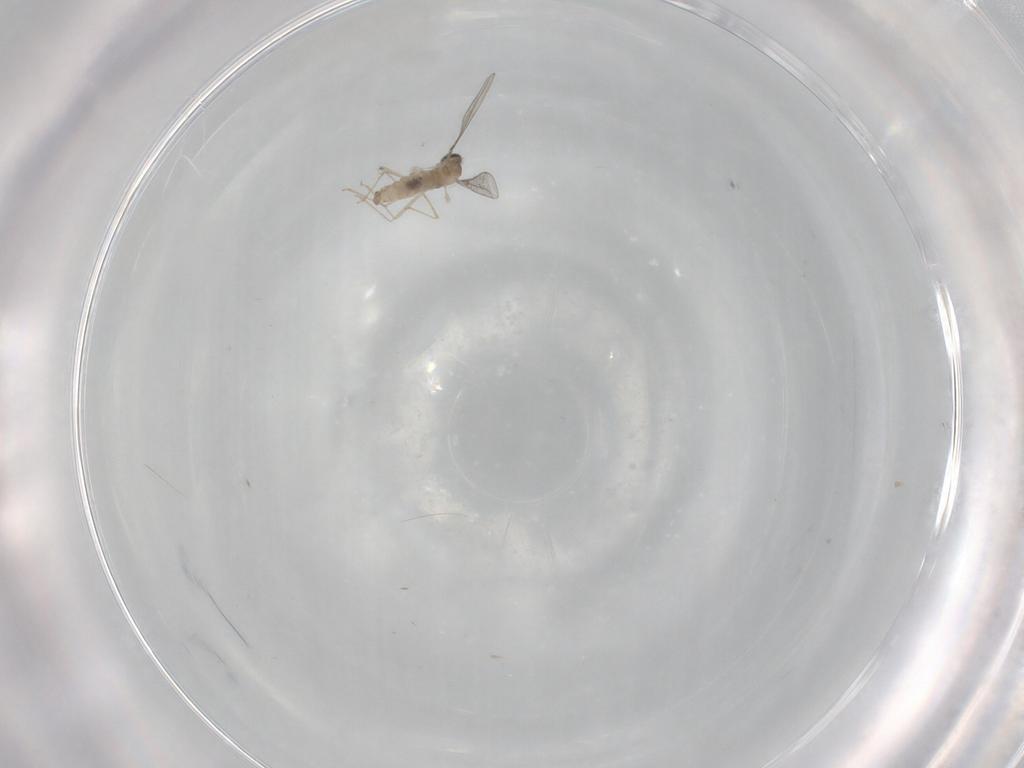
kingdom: Animalia
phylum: Arthropoda
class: Insecta
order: Diptera
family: Cecidomyiidae
